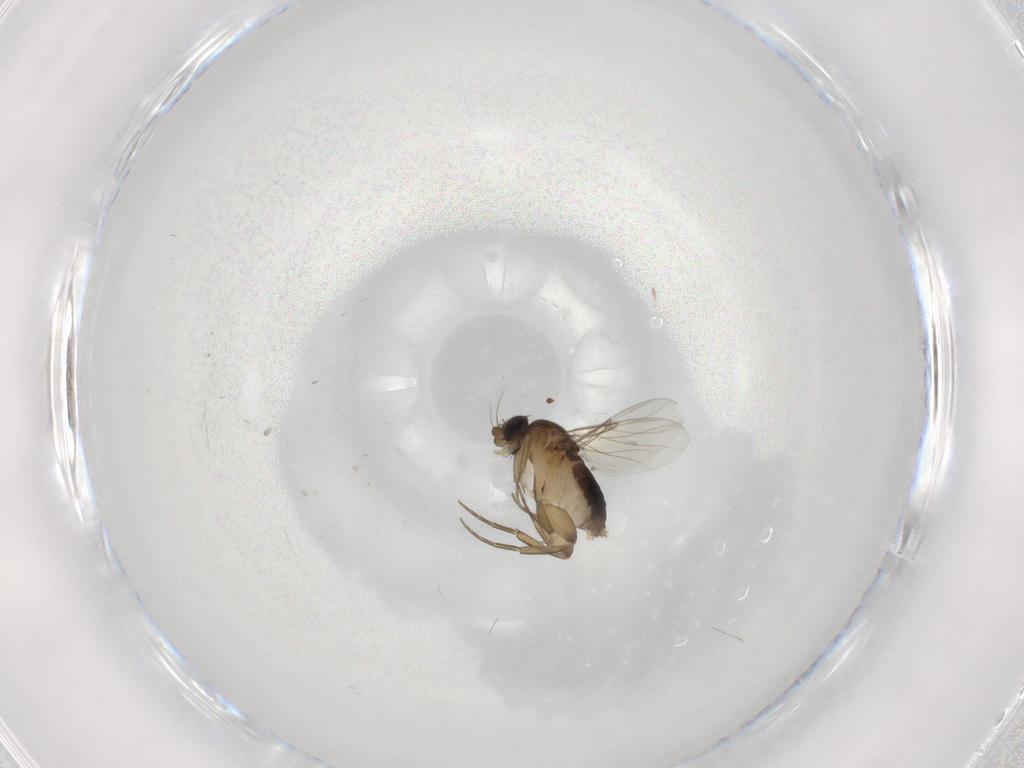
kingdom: Animalia
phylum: Arthropoda
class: Insecta
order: Diptera
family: Phoridae
